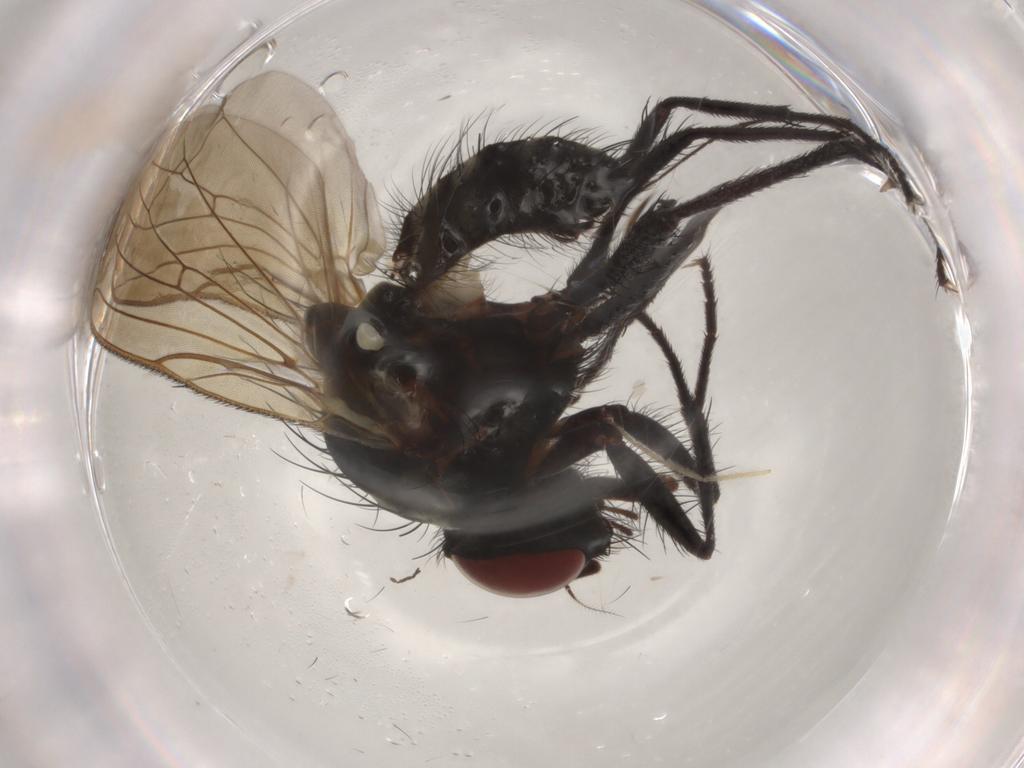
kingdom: Animalia
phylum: Arthropoda
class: Insecta
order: Diptera
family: Anthomyiidae
